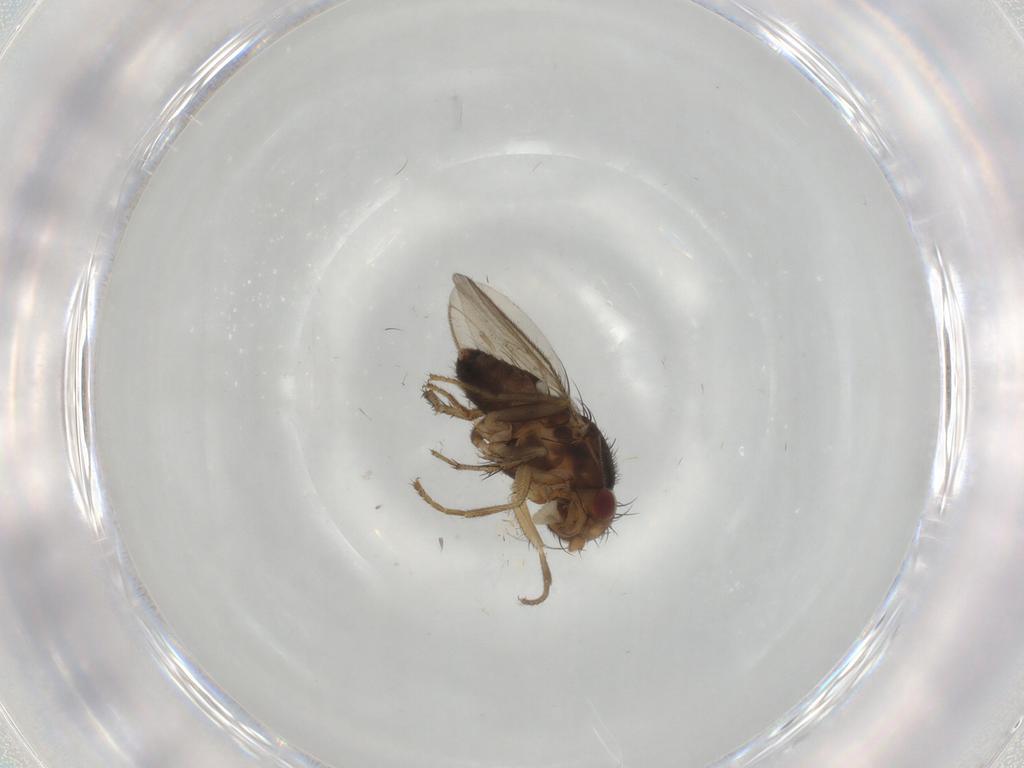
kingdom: Animalia
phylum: Arthropoda
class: Insecta
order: Diptera
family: Sphaeroceridae
